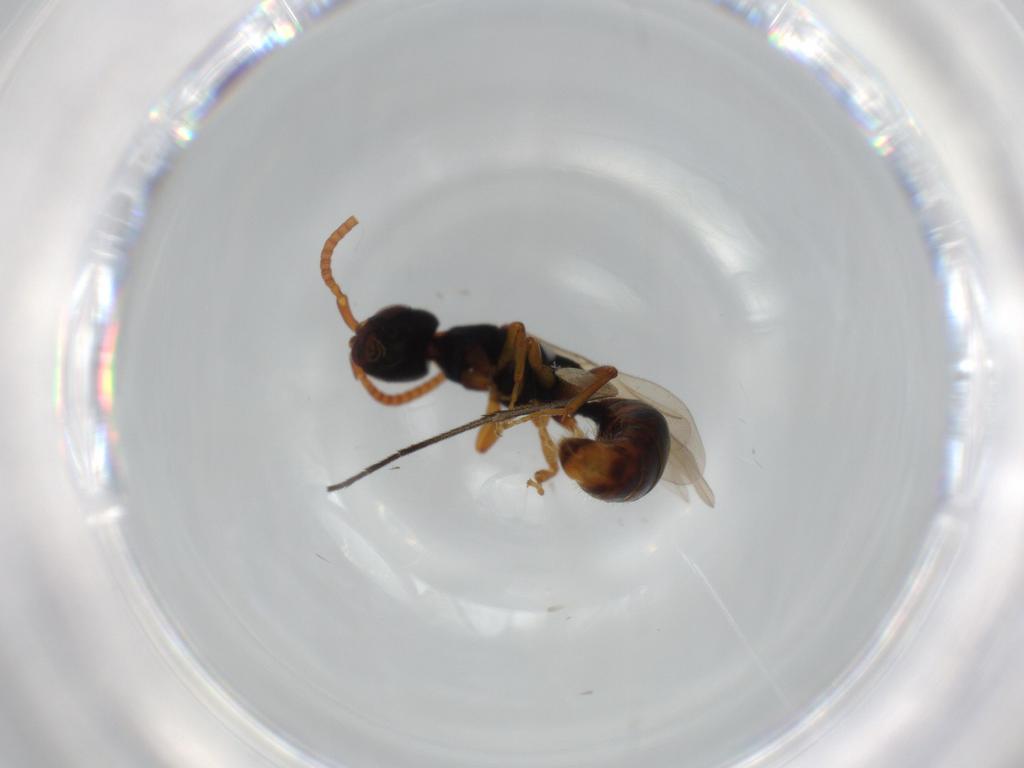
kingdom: Animalia
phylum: Arthropoda
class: Insecta
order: Hymenoptera
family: Bethylidae
